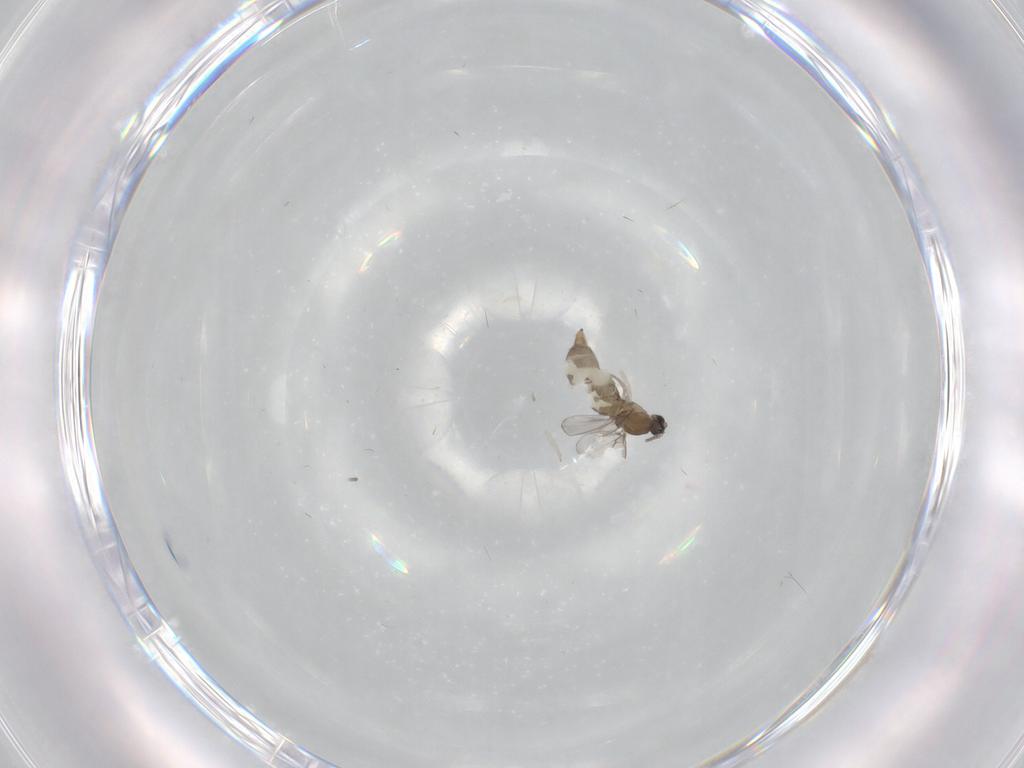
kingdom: Animalia
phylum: Arthropoda
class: Insecta
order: Diptera
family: Cecidomyiidae
